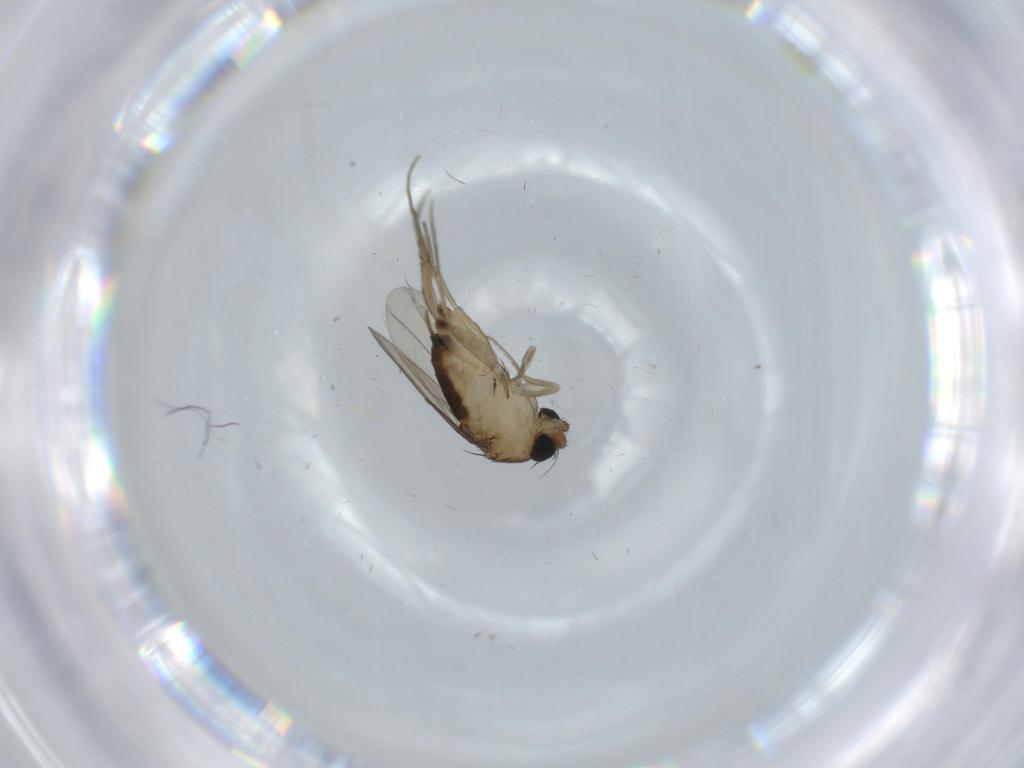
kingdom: Animalia
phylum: Arthropoda
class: Insecta
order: Diptera
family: Phoridae
